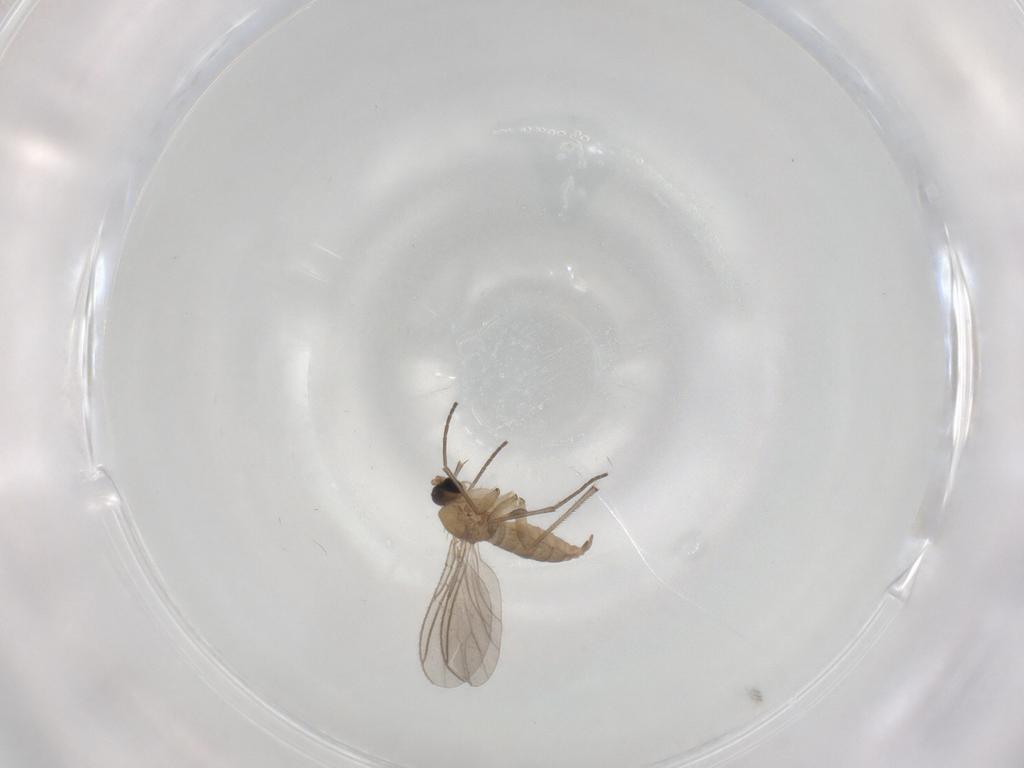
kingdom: Animalia
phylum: Arthropoda
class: Insecta
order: Diptera
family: Sciaridae
